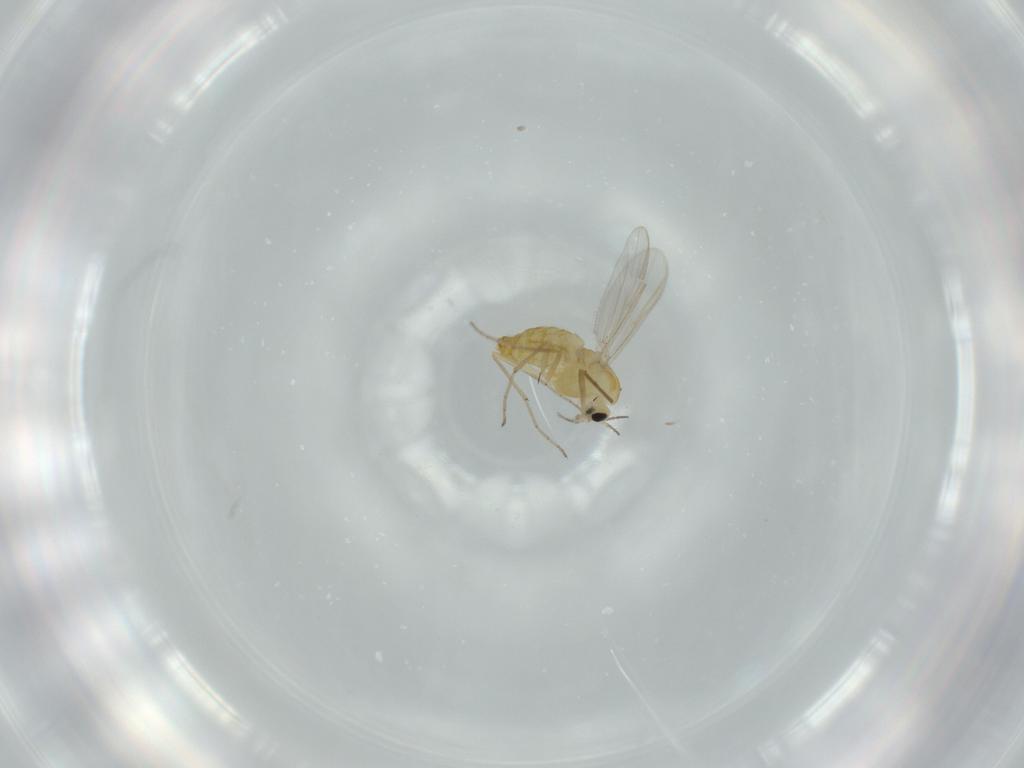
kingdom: Animalia
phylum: Arthropoda
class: Insecta
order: Diptera
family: Chironomidae
